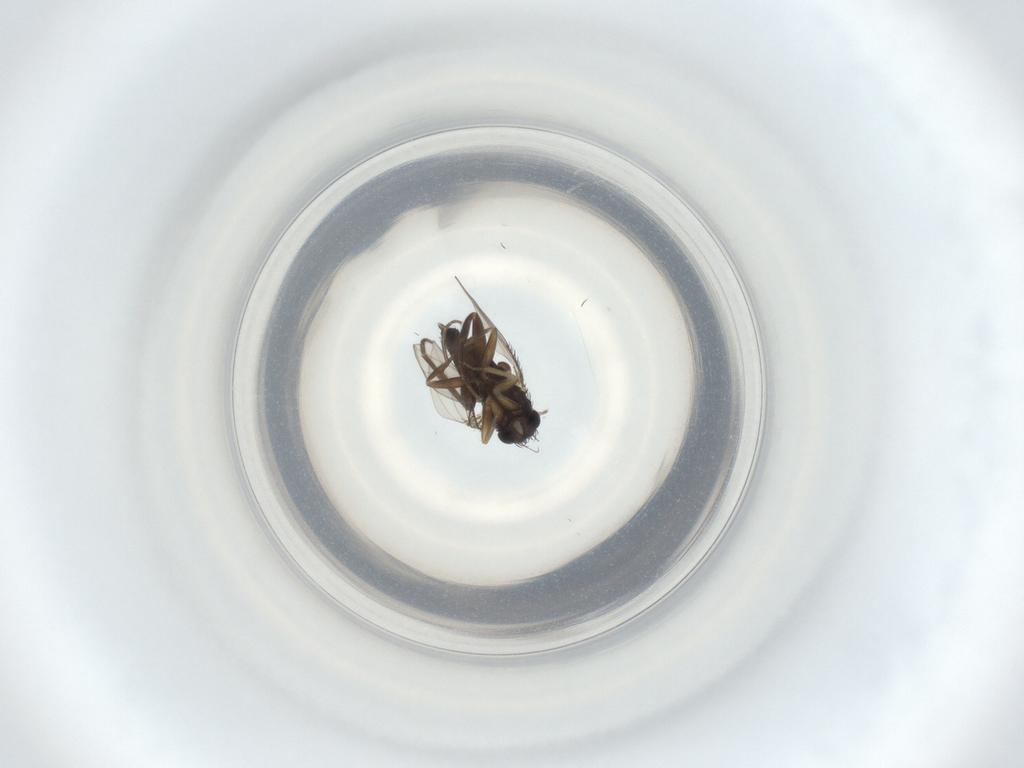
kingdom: Animalia
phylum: Arthropoda
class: Insecta
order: Diptera
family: Phoridae
